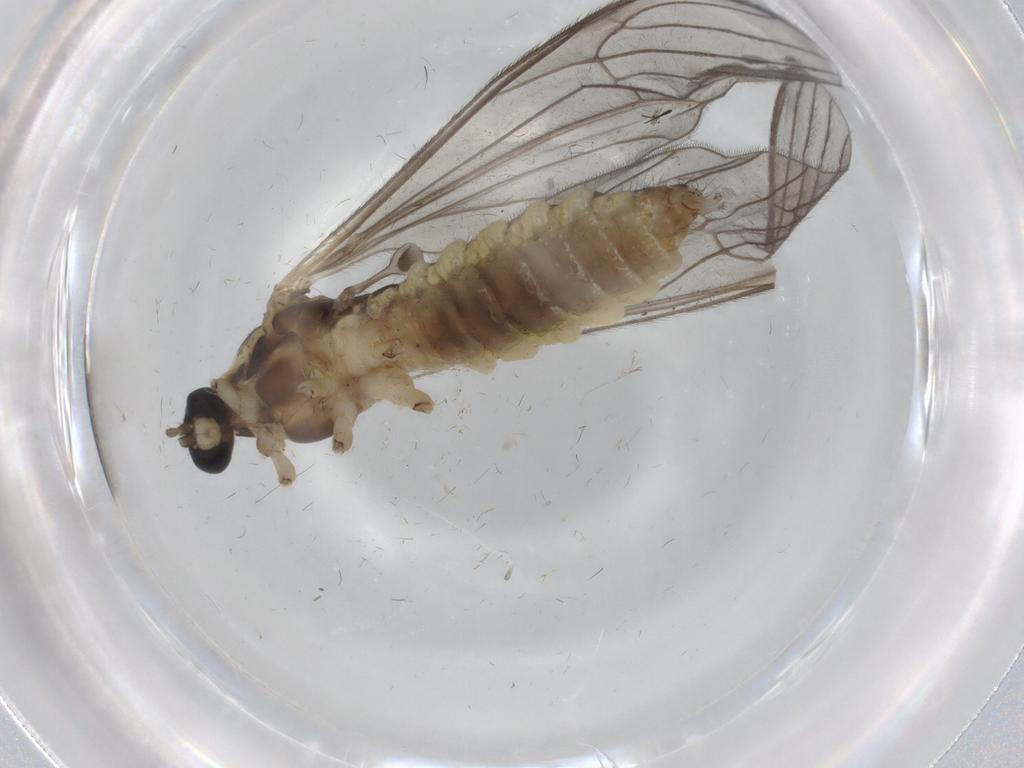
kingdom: Animalia
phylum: Arthropoda
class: Insecta
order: Diptera
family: Limoniidae
